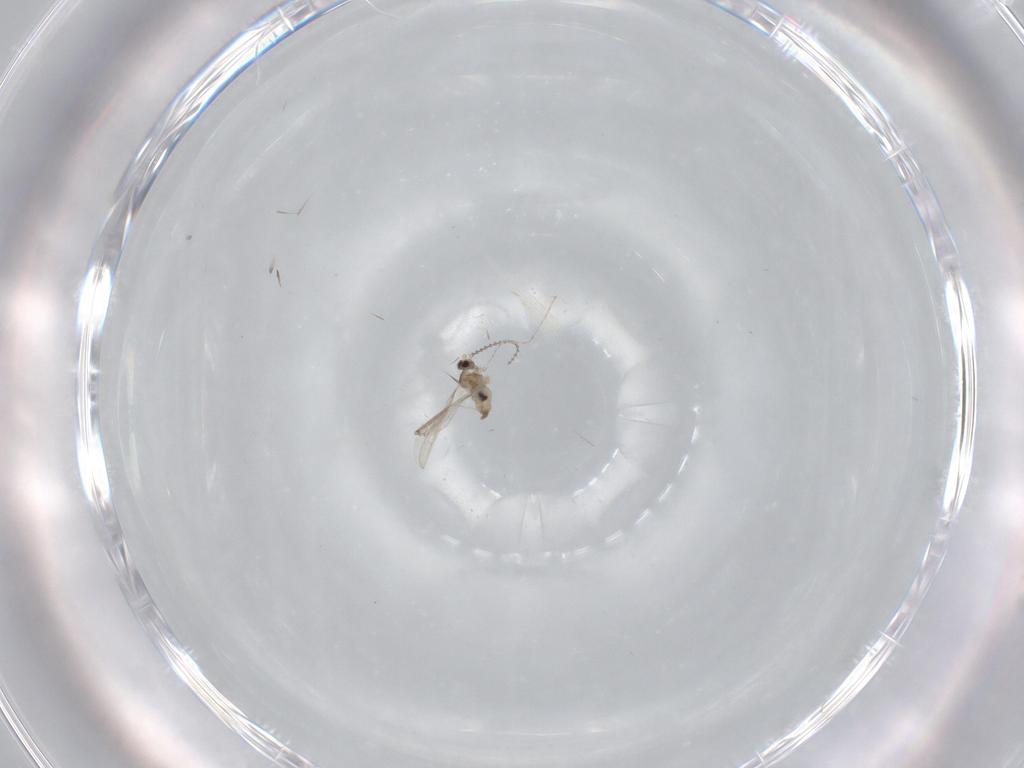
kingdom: Animalia
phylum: Arthropoda
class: Insecta
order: Diptera
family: Cecidomyiidae
